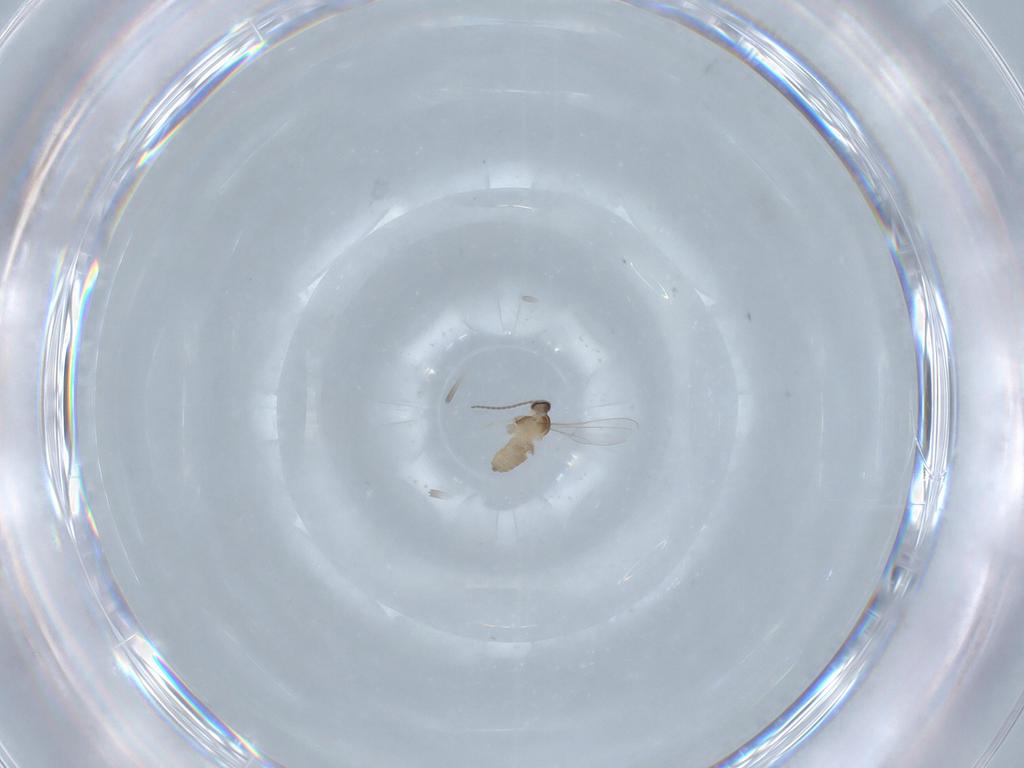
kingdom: Animalia
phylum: Arthropoda
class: Insecta
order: Diptera
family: Cecidomyiidae
